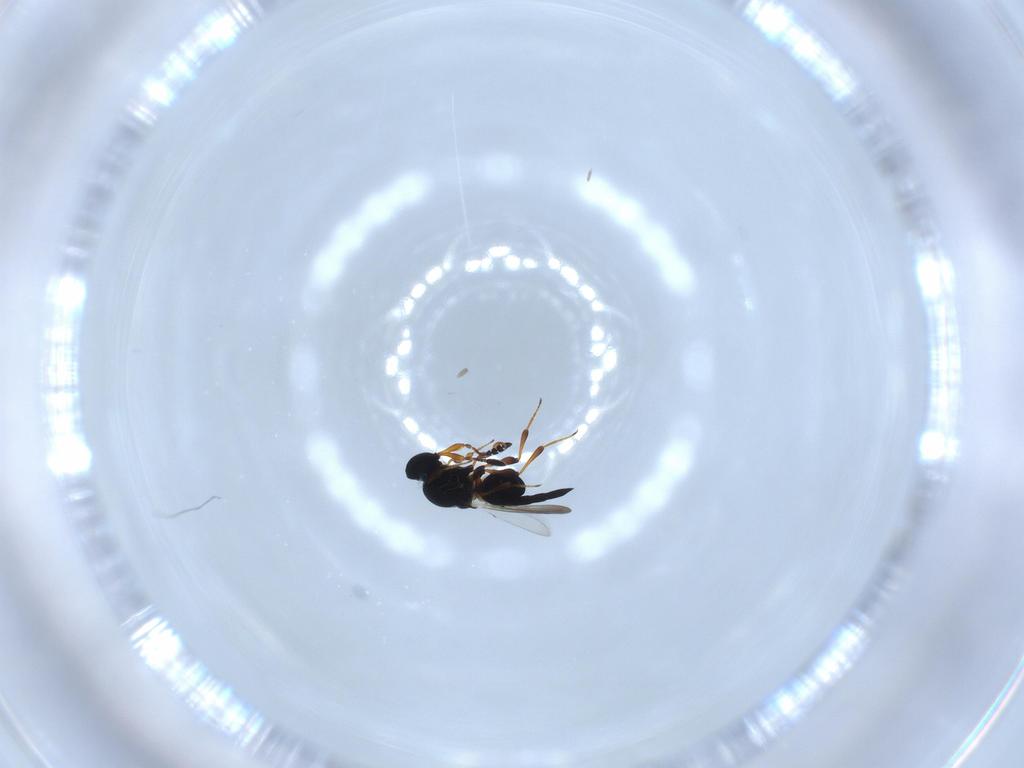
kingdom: Animalia
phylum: Arthropoda
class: Insecta
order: Hymenoptera
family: Platygastridae
